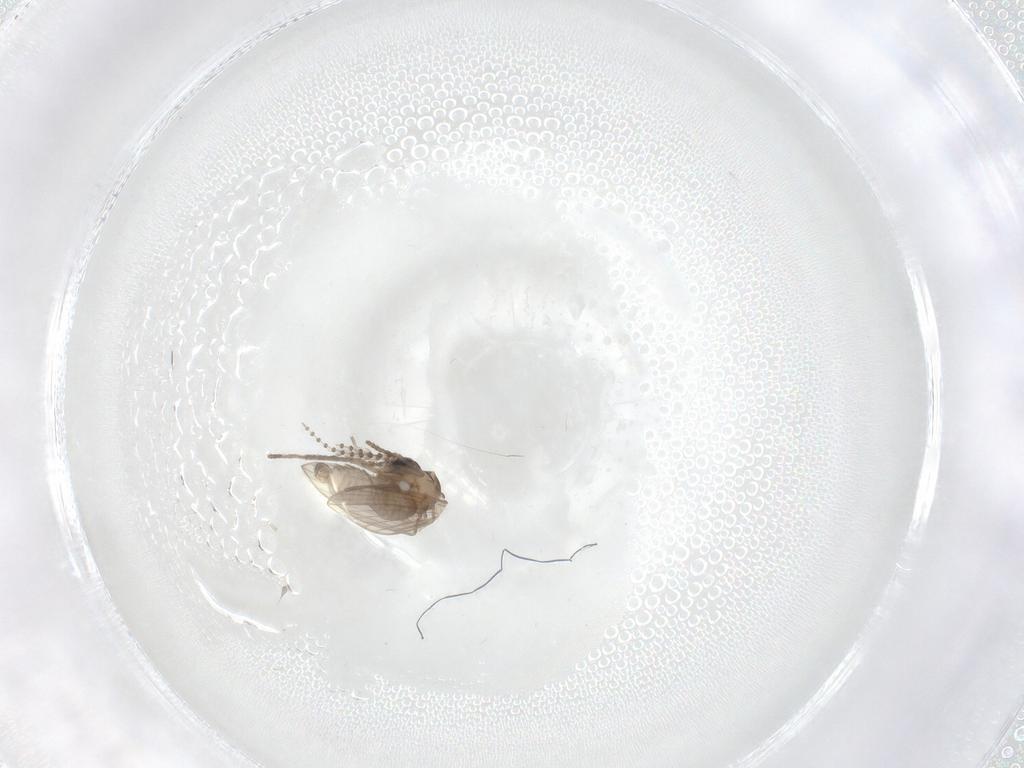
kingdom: Animalia
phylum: Arthropoda
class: Insecta
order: Diptera
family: Psychodidae
